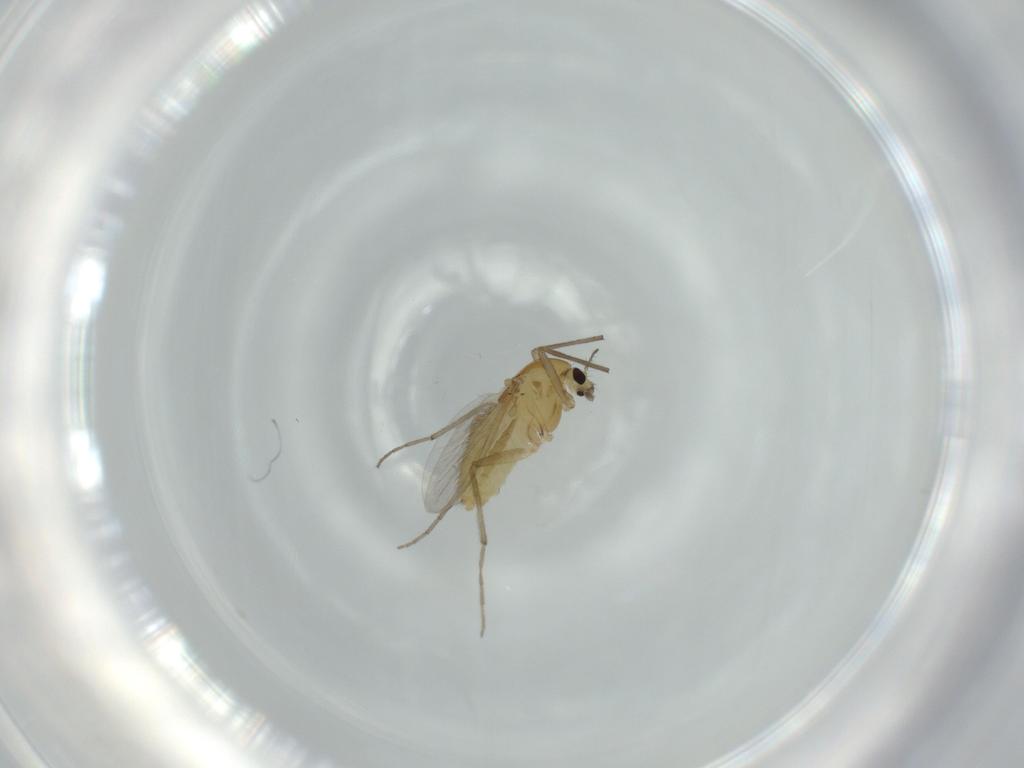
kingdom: Animalia
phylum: Arthropoda
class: Insecta
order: Diptera
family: Chironomidae
